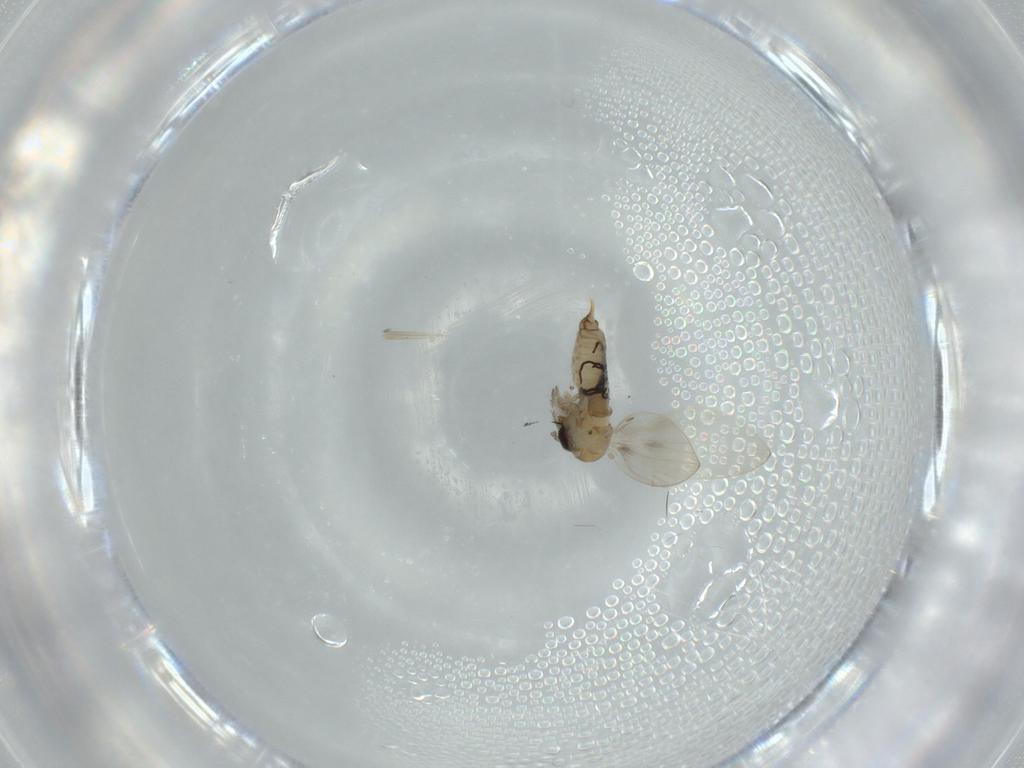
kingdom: Animalia
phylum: Arthropoda
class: Insecta
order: Diptera
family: Psychodidae
